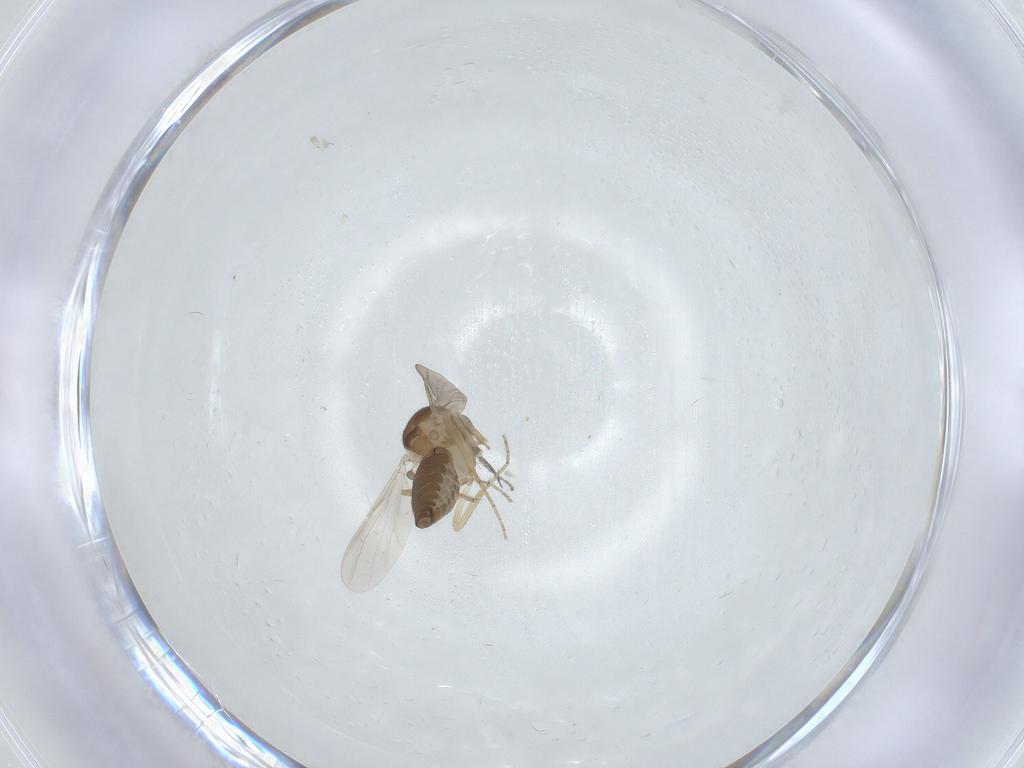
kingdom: Animalia
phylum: Arthropoda
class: Insecta
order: Diptera
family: Ceratopogonidae
